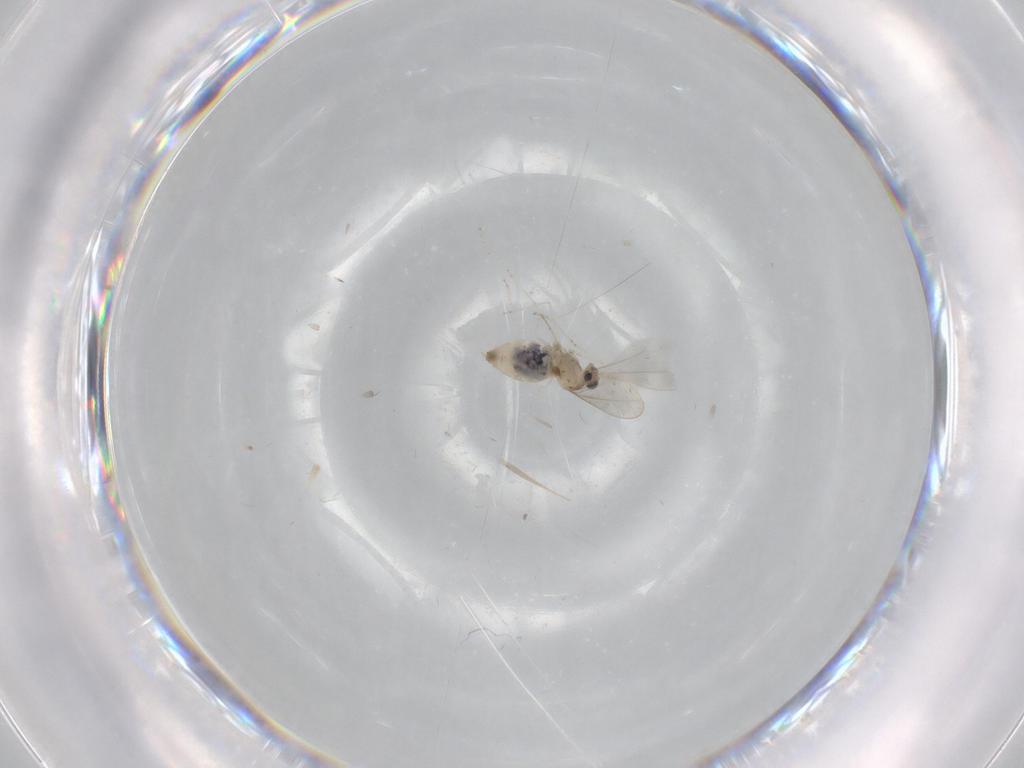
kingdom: Animalia
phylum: Arthropoda
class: Insecta
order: Diptera
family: Cecidomyiidae
